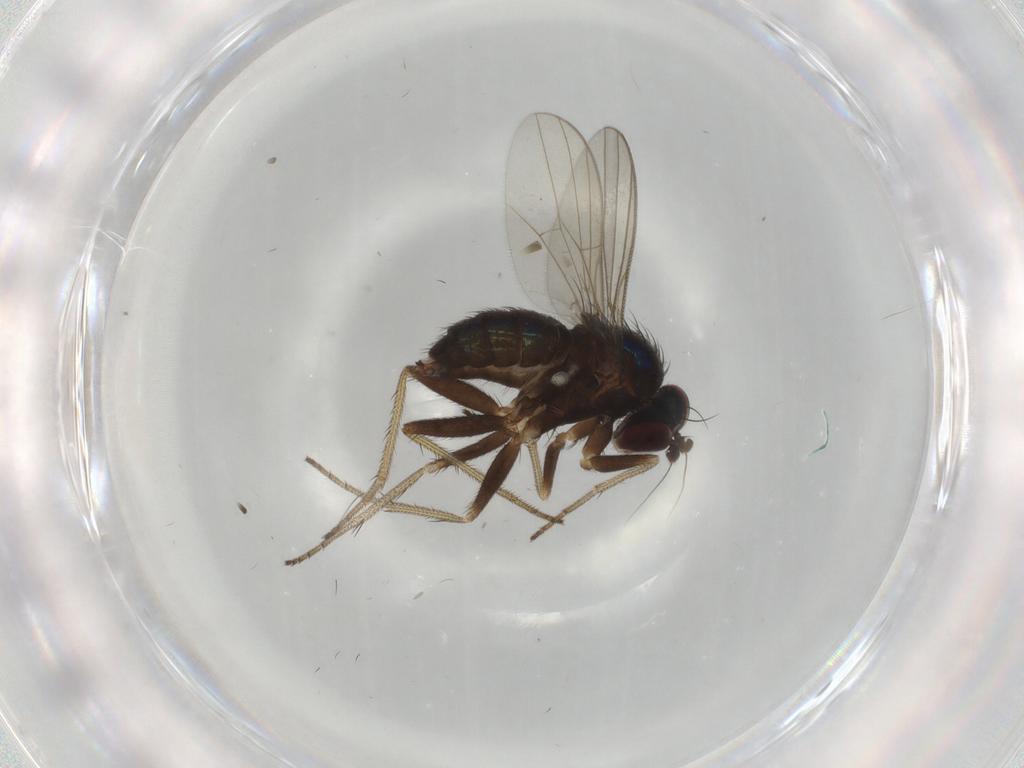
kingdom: Animalia
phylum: Arthropoda
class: Insecta
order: Diptera
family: Dolichopodidae
